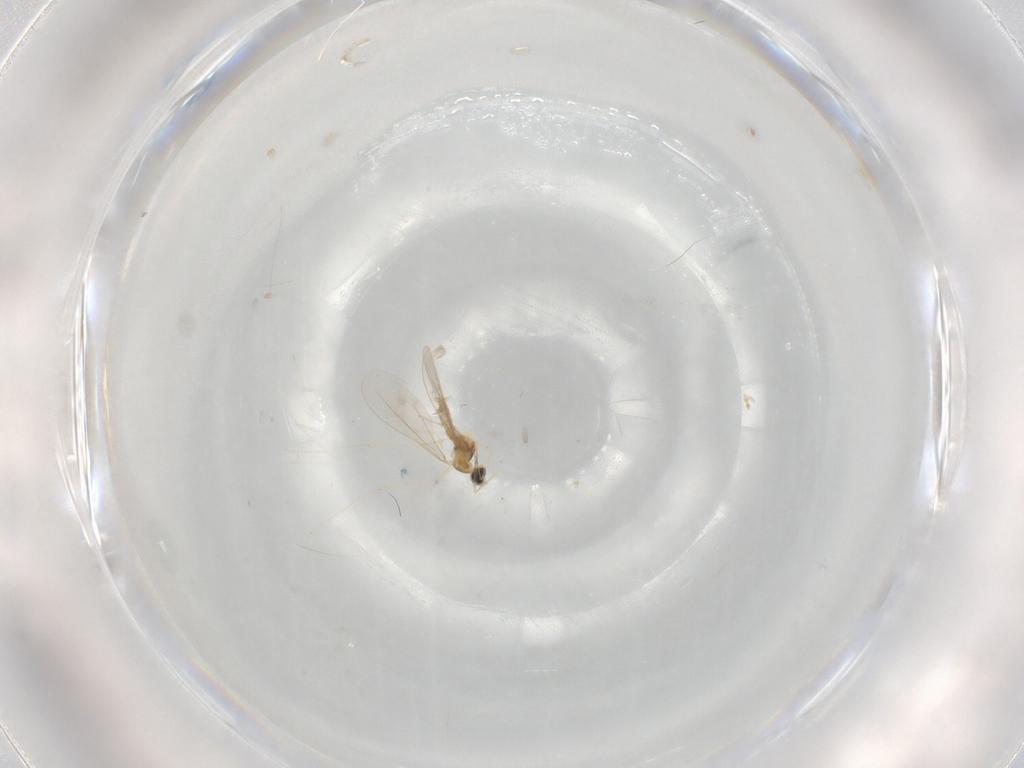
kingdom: Animalia
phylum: Arthropoda
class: Insecta
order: Diptera
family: Cecidomyiidae
